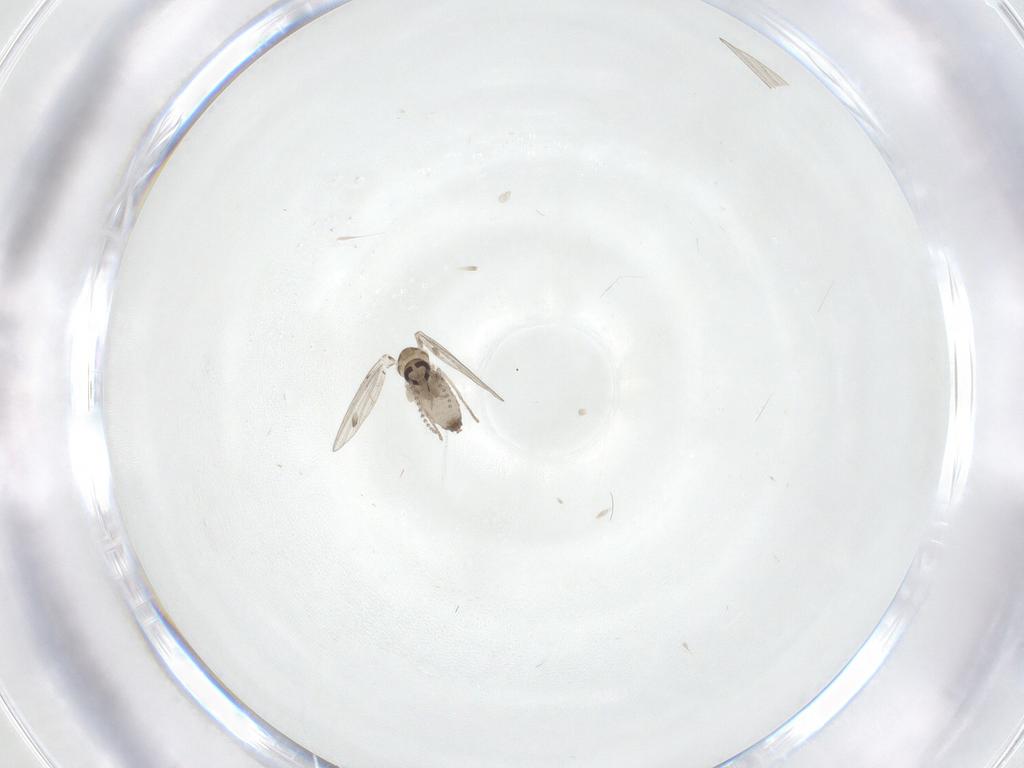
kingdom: Animalia
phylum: Arthropoda
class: Insecta
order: Diptera
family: Psychodidae
